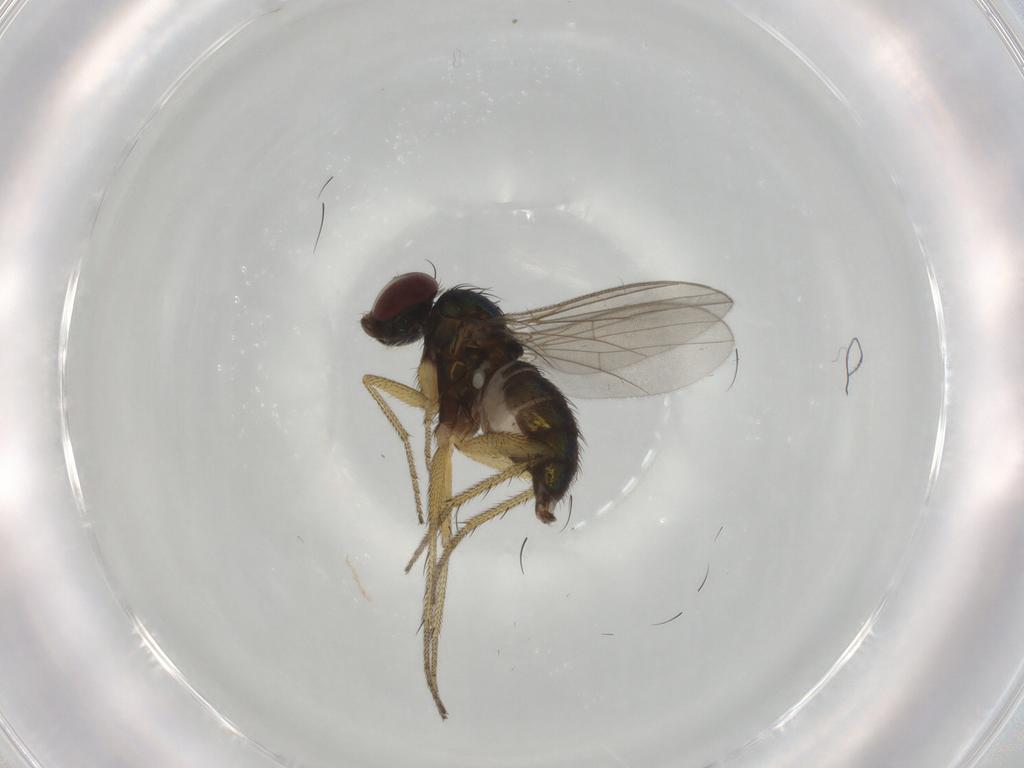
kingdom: Animalia
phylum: Arthropoda
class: Insecta
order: Diptera
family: Dolichopodidae
